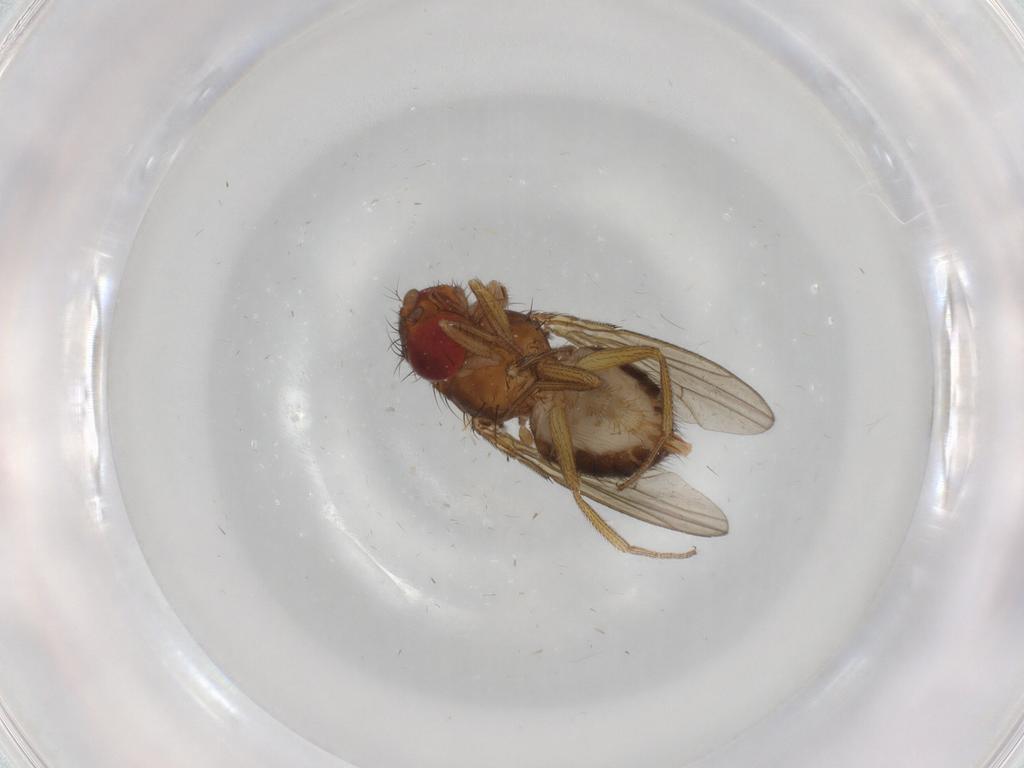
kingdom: Animalia
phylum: Arthropoda
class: Insecta
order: Diptera
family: Drosophilidae
